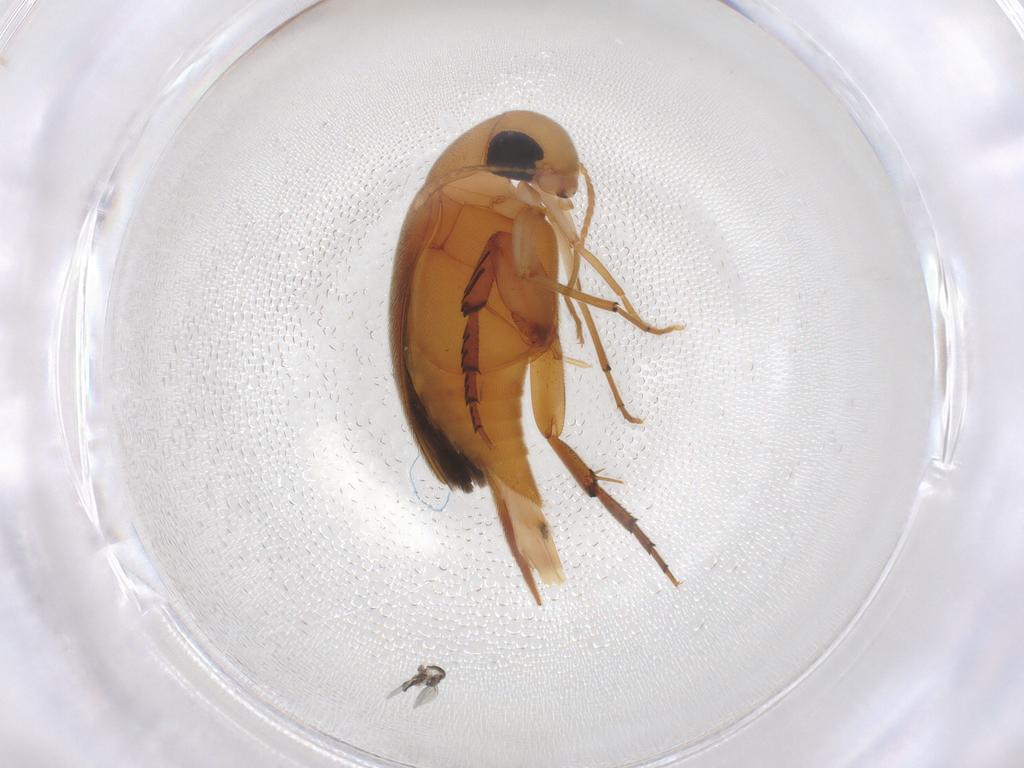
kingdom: Animalia
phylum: Arthropoda
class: Insecta
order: Coleoptera
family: Mordellidae
